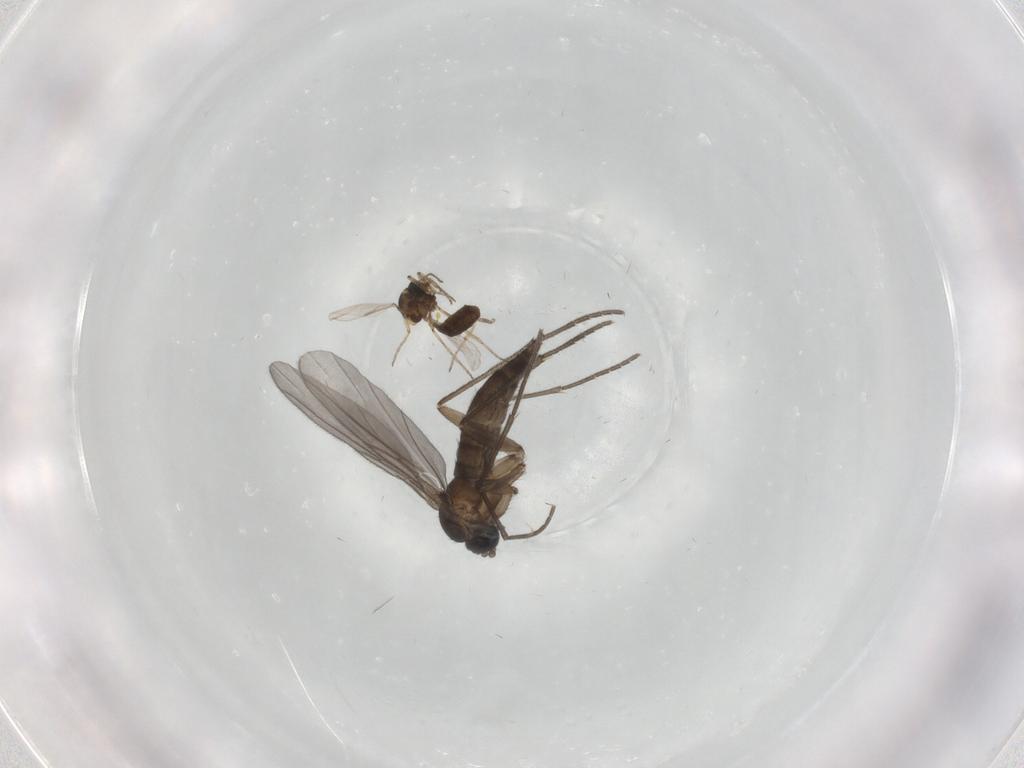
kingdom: Animalia
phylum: Arthropoda
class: Insecta
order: Diptera
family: Sciaridae
